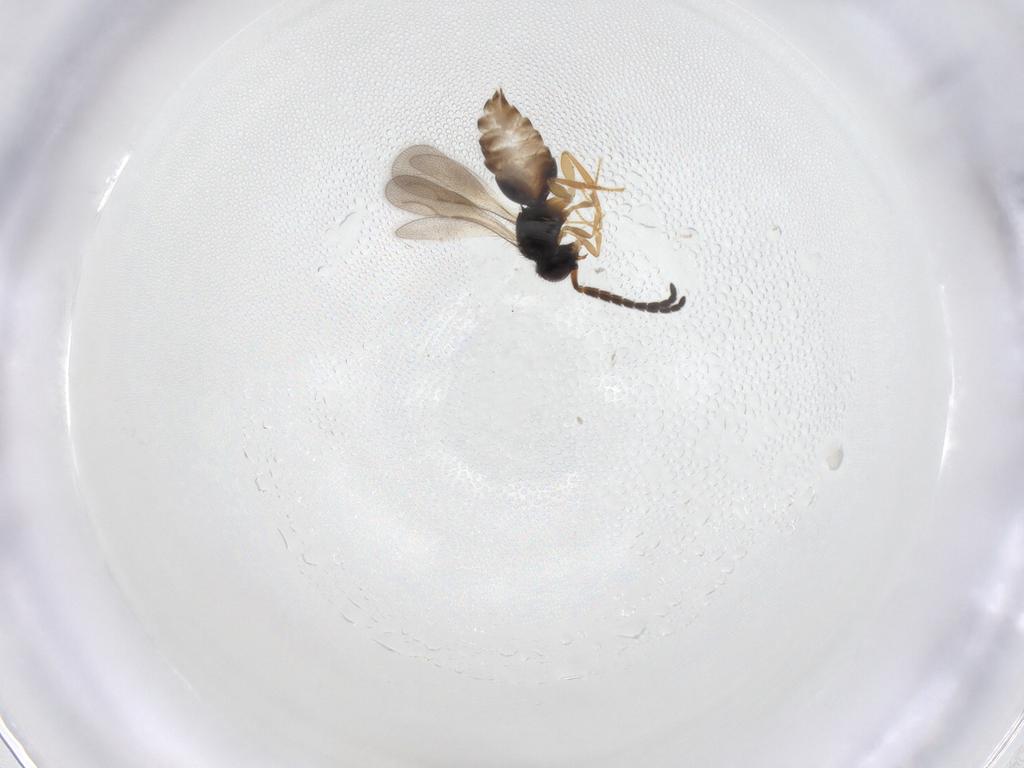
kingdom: Animalia
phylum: Arthropoda
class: Insecta
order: Hymenoptera
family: Ceraphronidae
